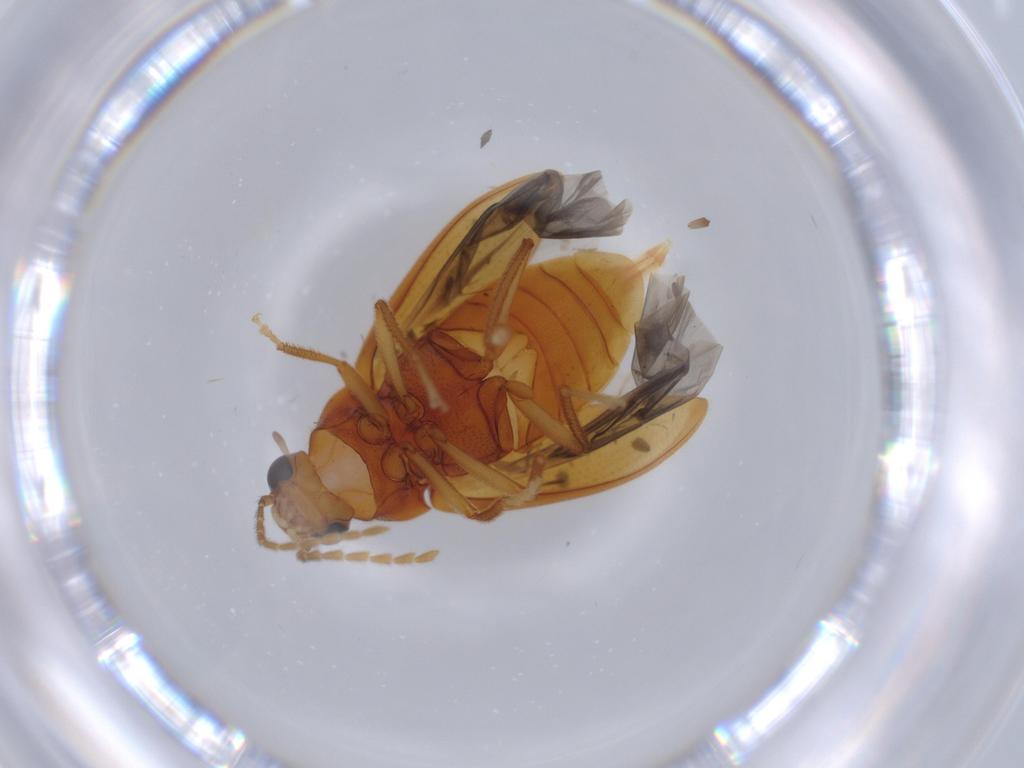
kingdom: Animalia
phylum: Arthropoda
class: Insecta
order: Coleoptera
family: Ptilodactylidae
